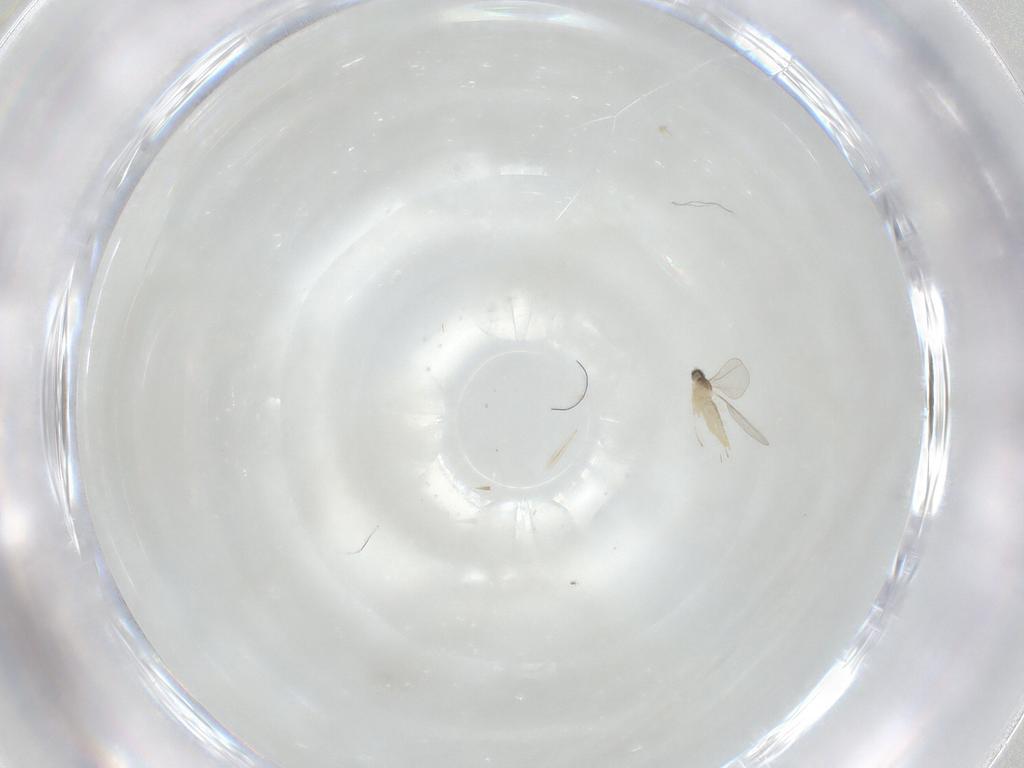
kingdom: Animalia
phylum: Arthropoda
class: Insecta
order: Diptera
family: Cecidomyiidae
